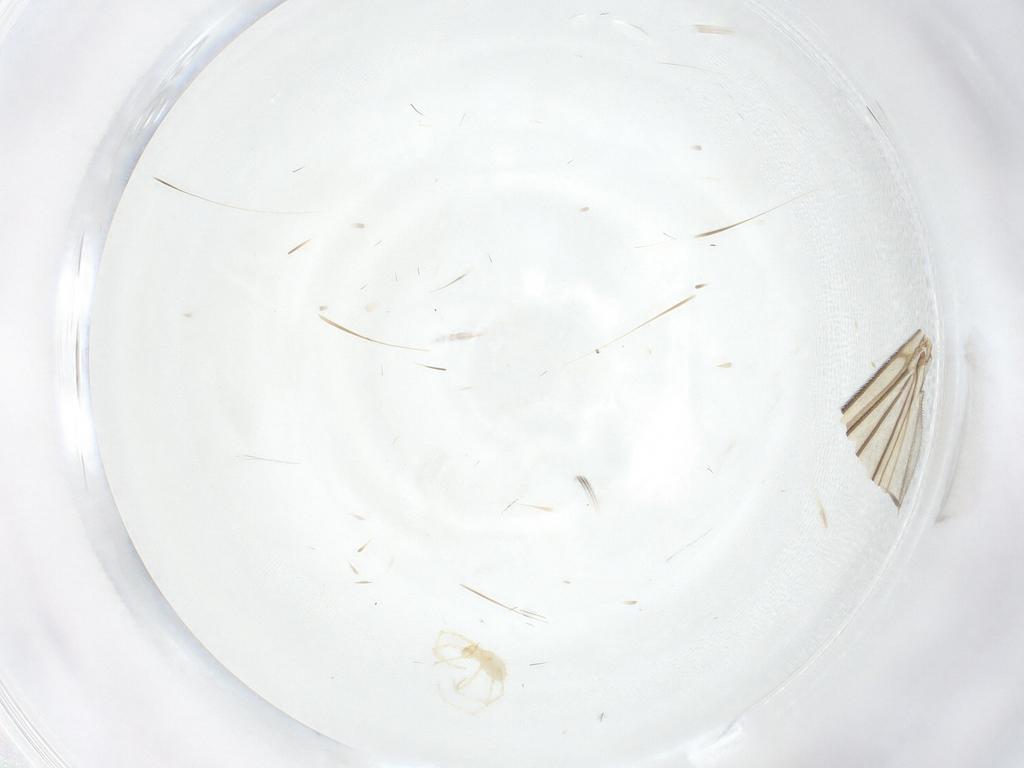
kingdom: Animalia
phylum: Arthropoda
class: Insecta
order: Diptera
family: Mycetophilidae
